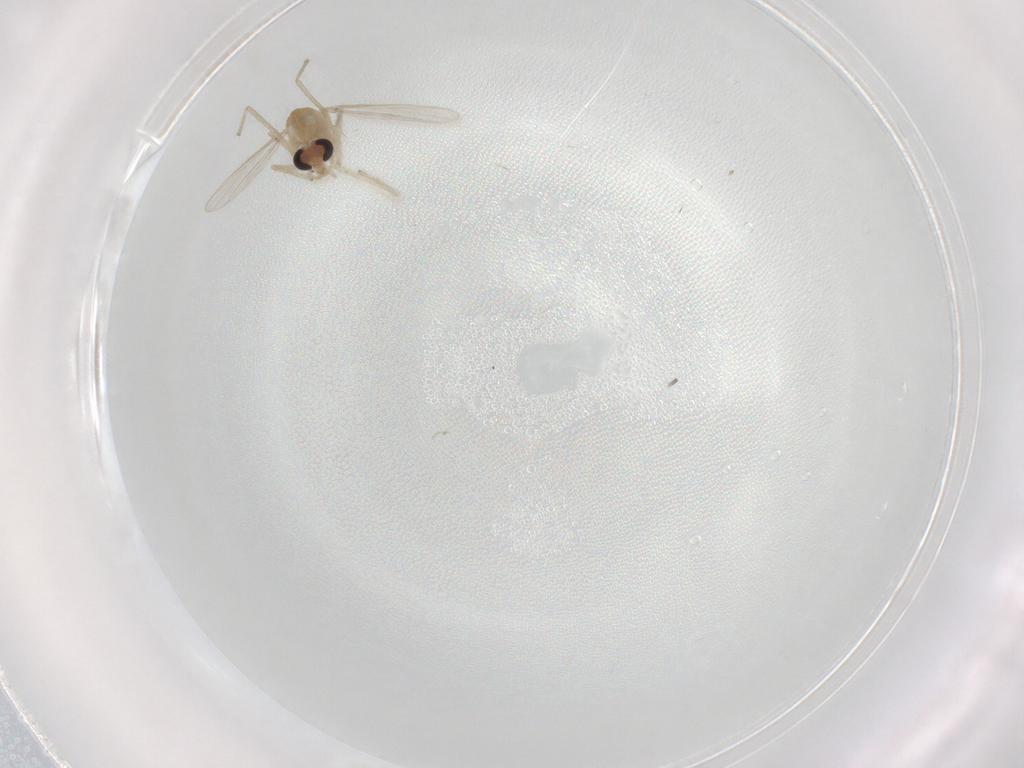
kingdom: Animalia
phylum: Arthropoda
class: Insecta
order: Diptera
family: Chironomidae
